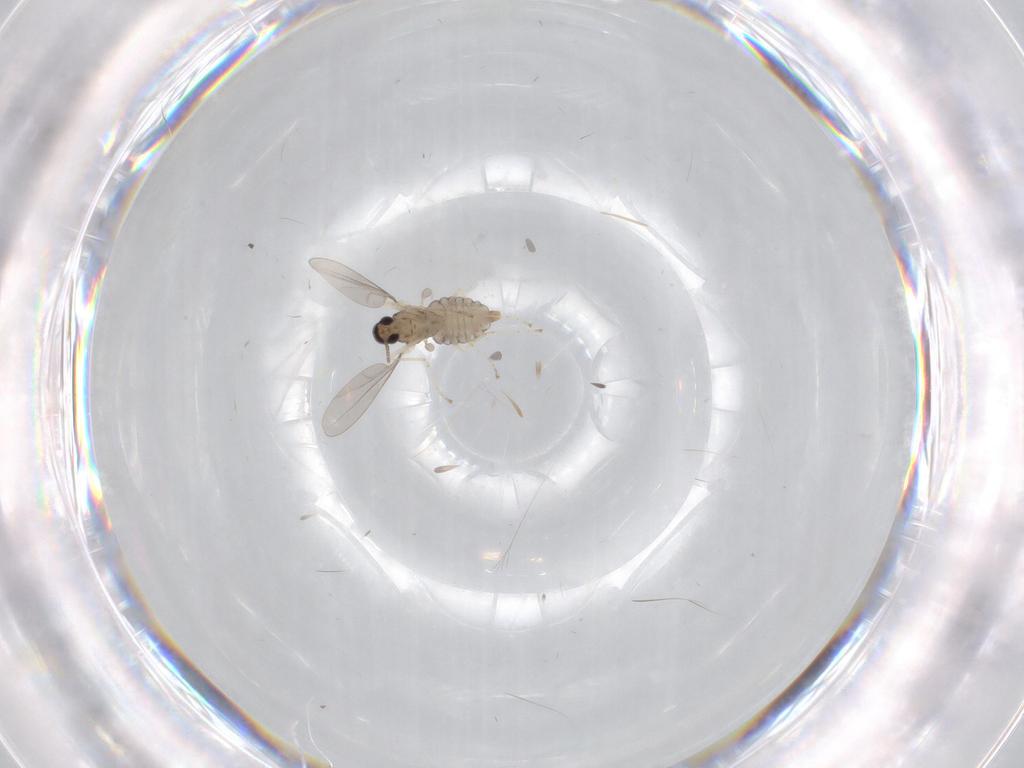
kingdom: Animalia
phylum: Arthropoda
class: Insecta
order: Diptera
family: Cecidomyiidae
